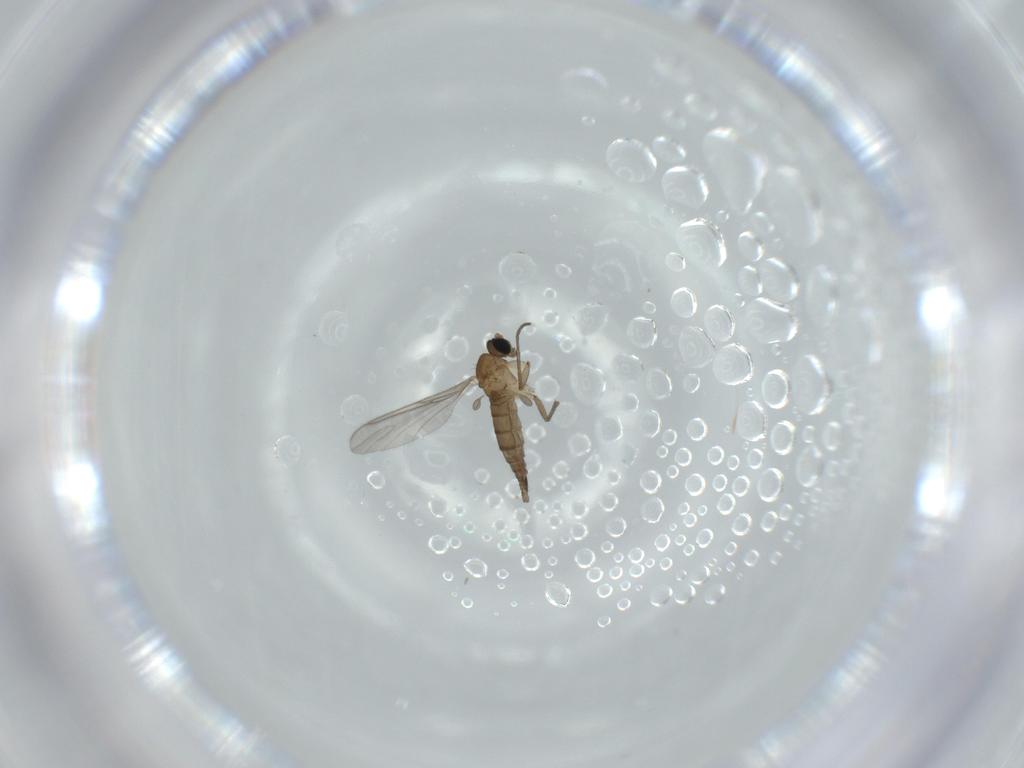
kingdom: Animalia
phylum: Arthropoda
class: Insecta
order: Diptera
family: Sciaridae
